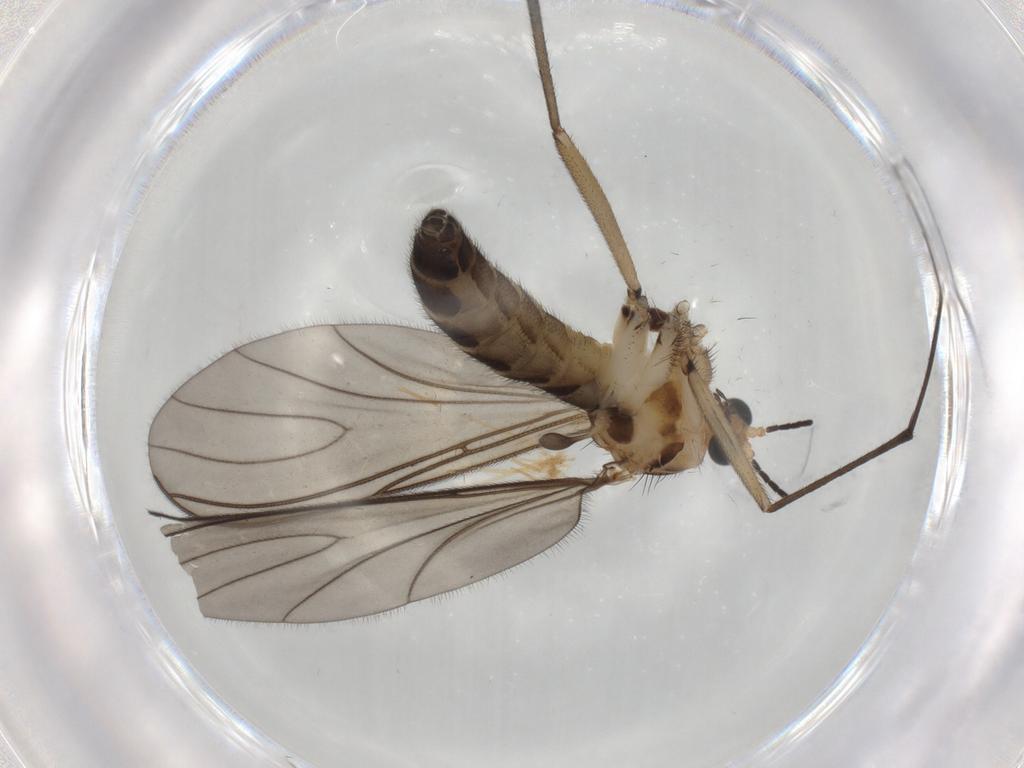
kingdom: Animalia
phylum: Arthropoda
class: Insecta
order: Diptera
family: Sciaridae
